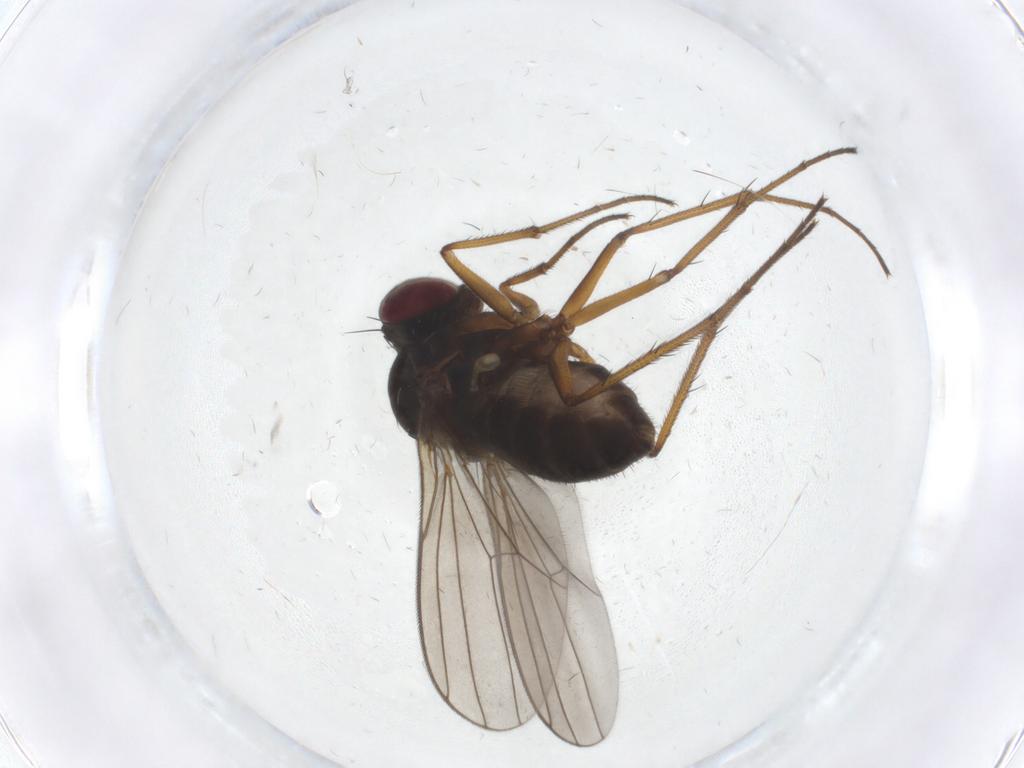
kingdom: Animalia
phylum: Arthropoda
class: Insecta
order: Diptera
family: Dolichopodidae
